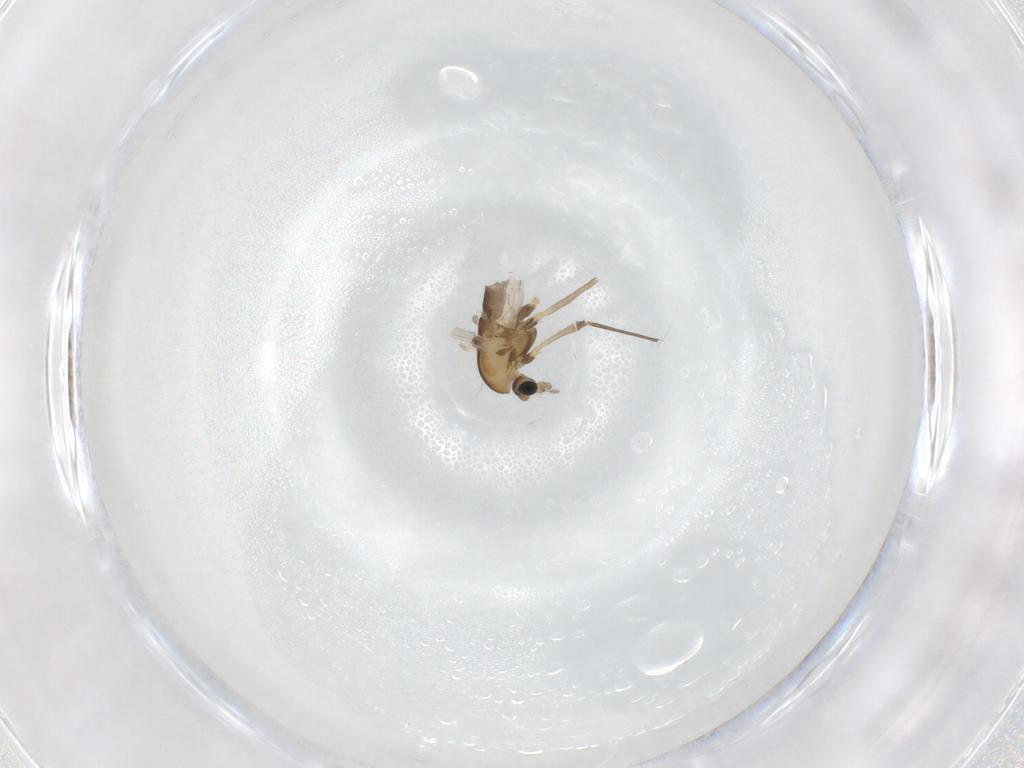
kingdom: Animalia
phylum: Arthropoda
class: Insecta
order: Diptera
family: Chironomidae
